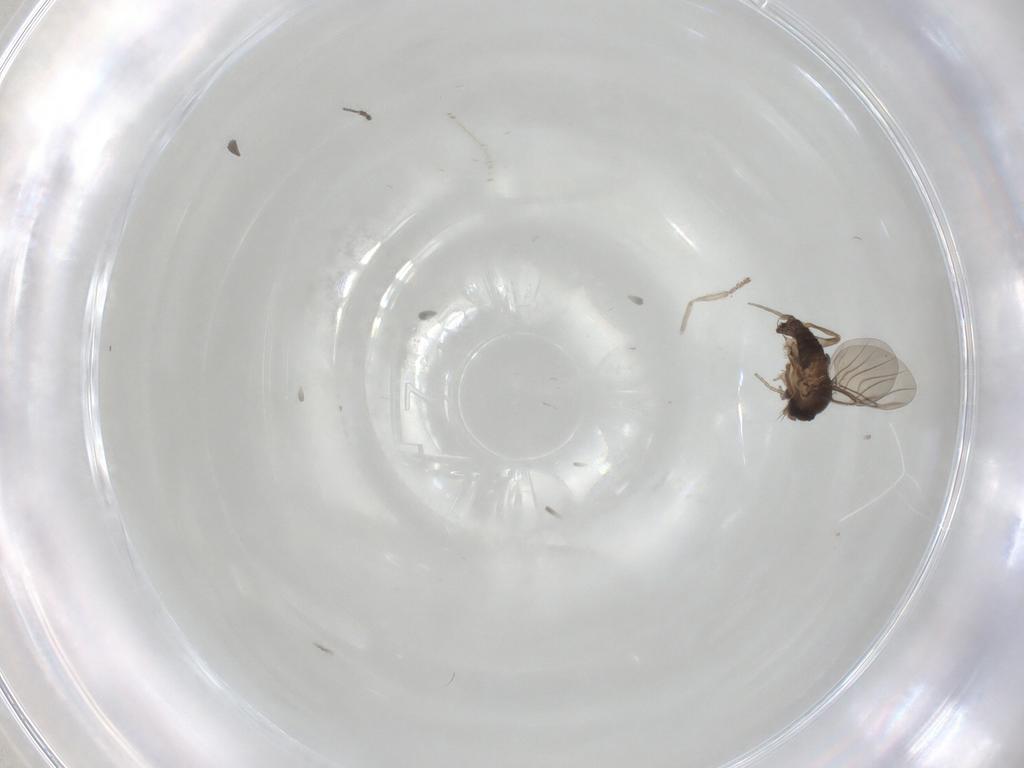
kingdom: Animalia
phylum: Arthropoda
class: Insecta
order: Diptera
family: Phoridae
